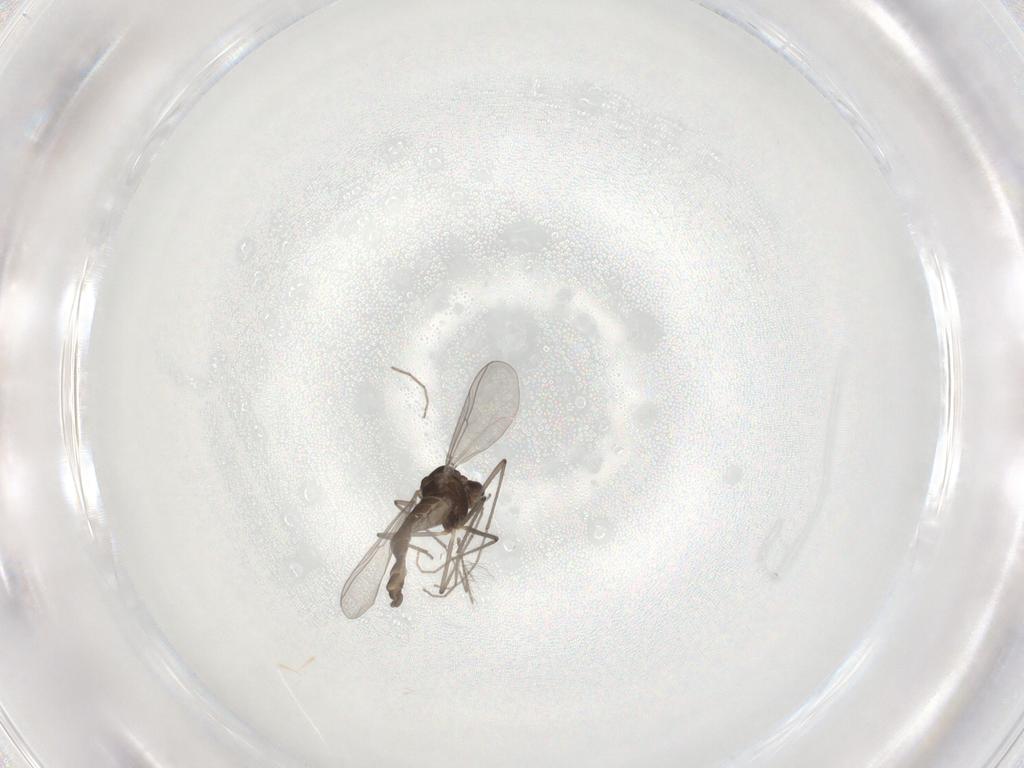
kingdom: Animalia
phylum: Arthropoda
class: Insecta
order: Diptera
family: Chironomidae
